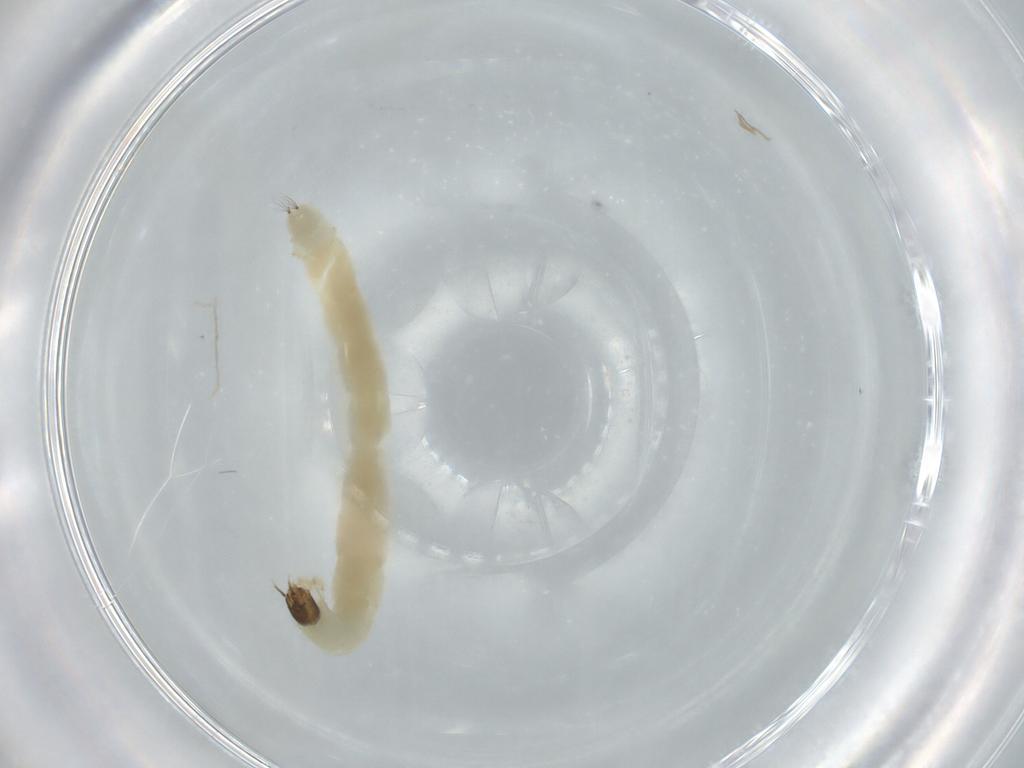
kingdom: Animalia
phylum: Arthropoda
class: Insecta
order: Diptera
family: Chironomidae
